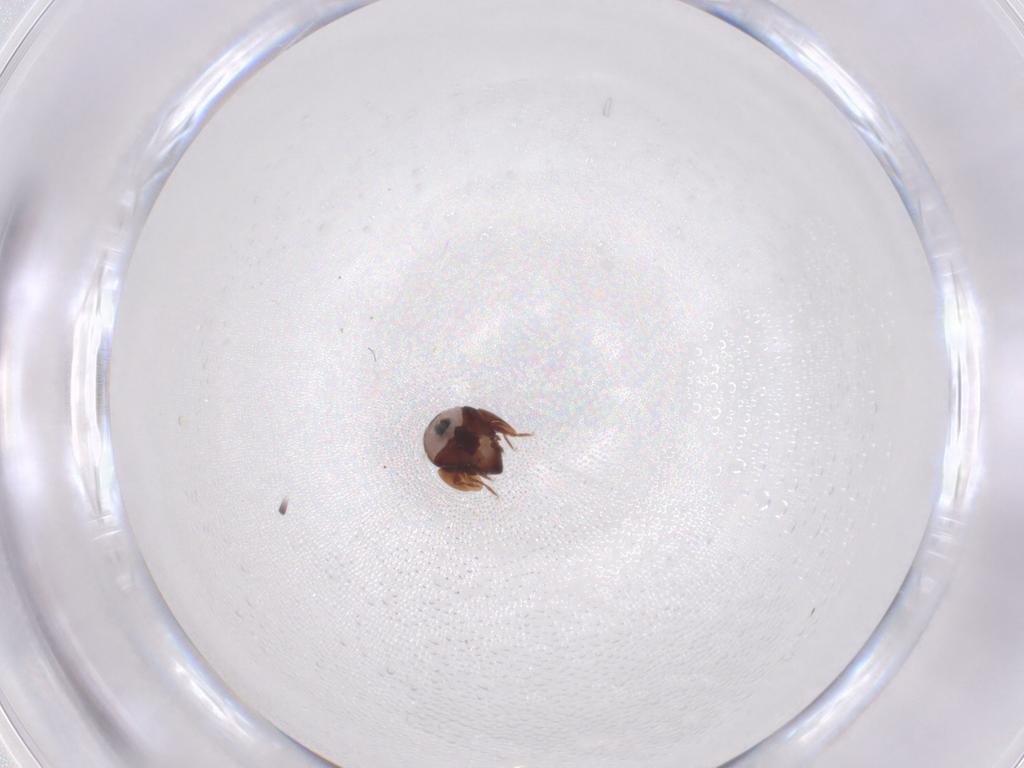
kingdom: Animalia
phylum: Arthropoda
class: Arachnida
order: Sarcoptiformes
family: Galumnidae
